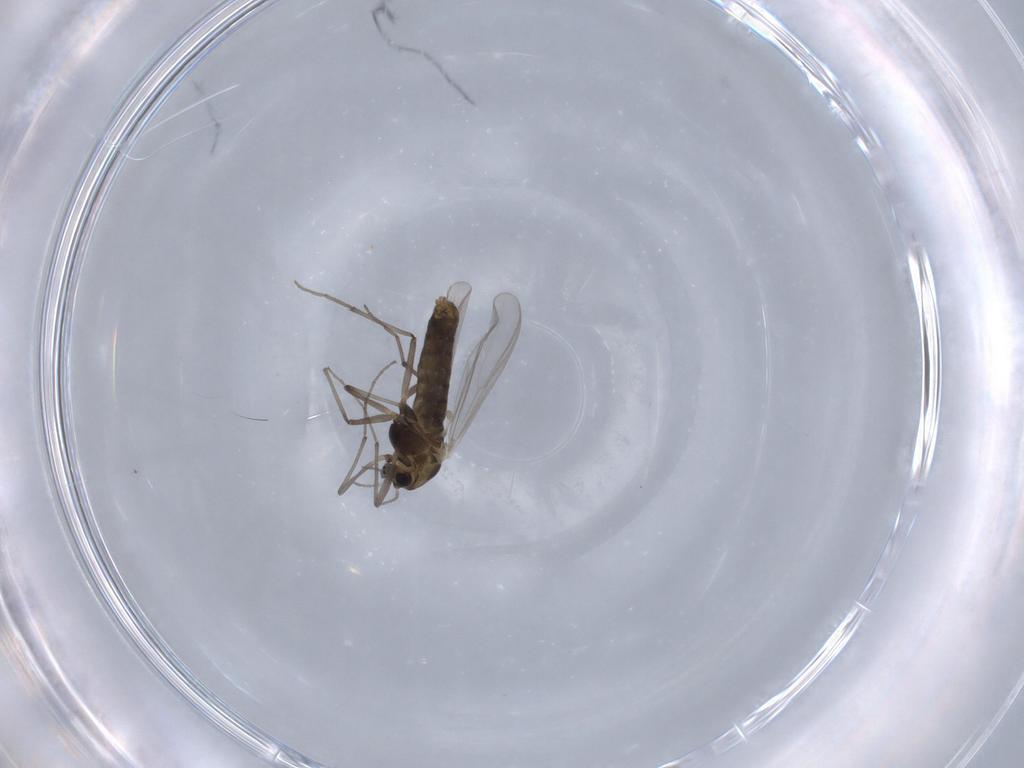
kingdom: Animalia
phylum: Arthropoda
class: Insecta
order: Diptera
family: Chironomidae
